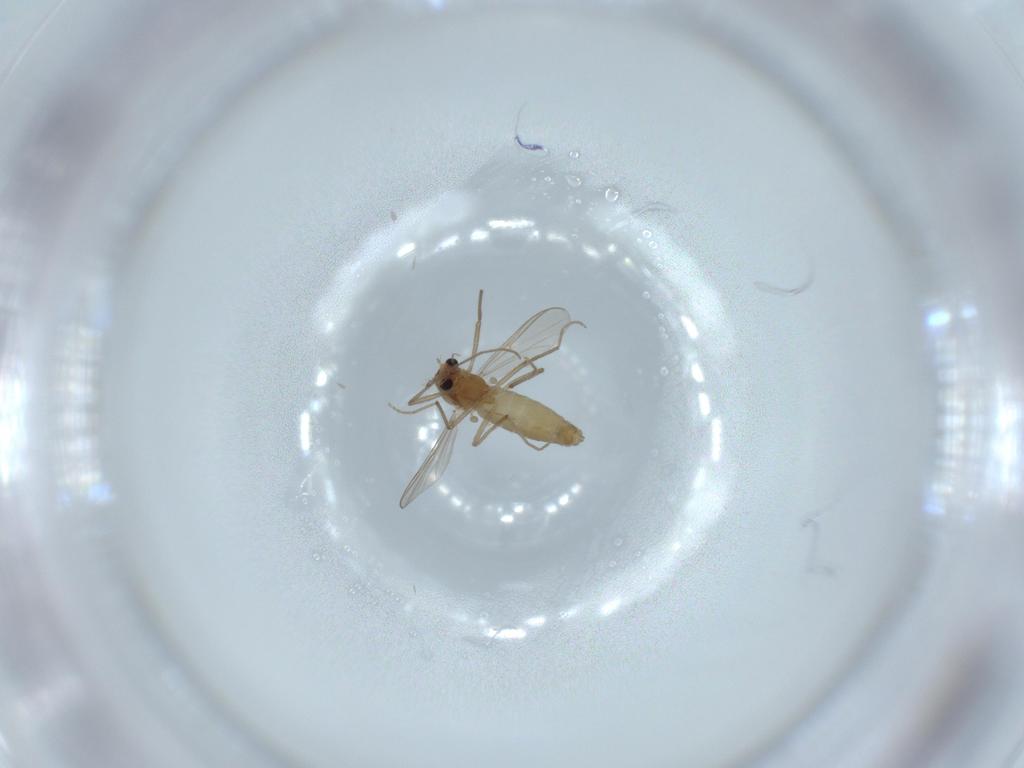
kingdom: Animalia
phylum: Arthropoda
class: Insecta
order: Diptera
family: Chironomidae
